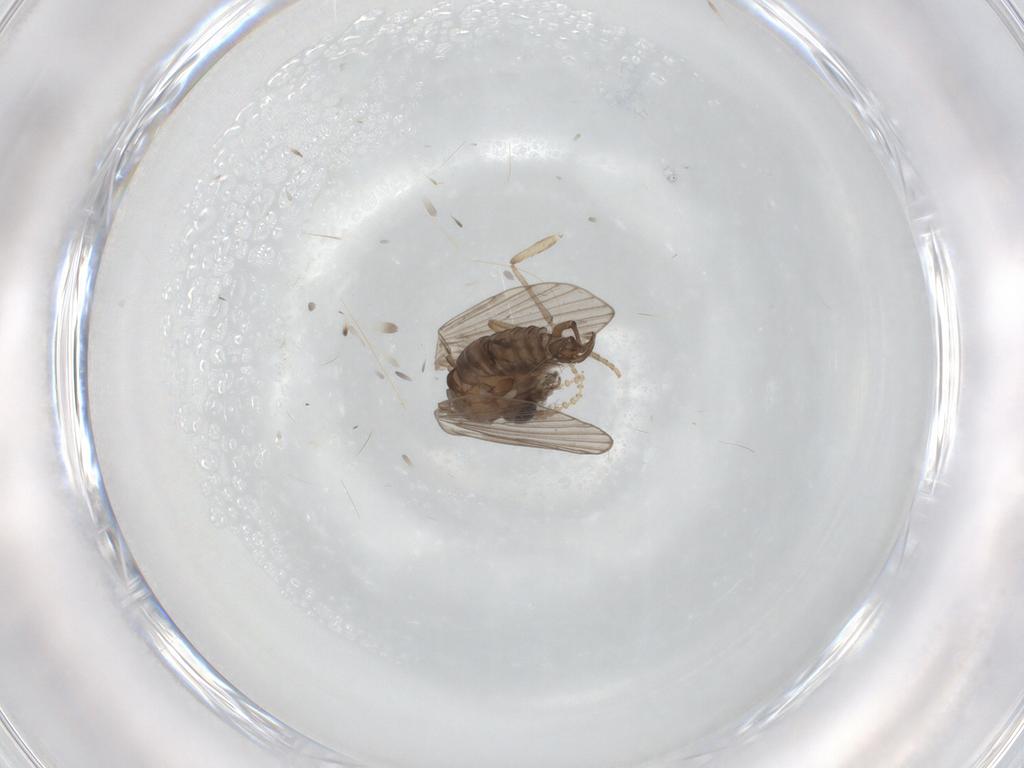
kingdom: Animalia
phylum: Arthropoda
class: Insecta
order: Diptera
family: Psychodidae
